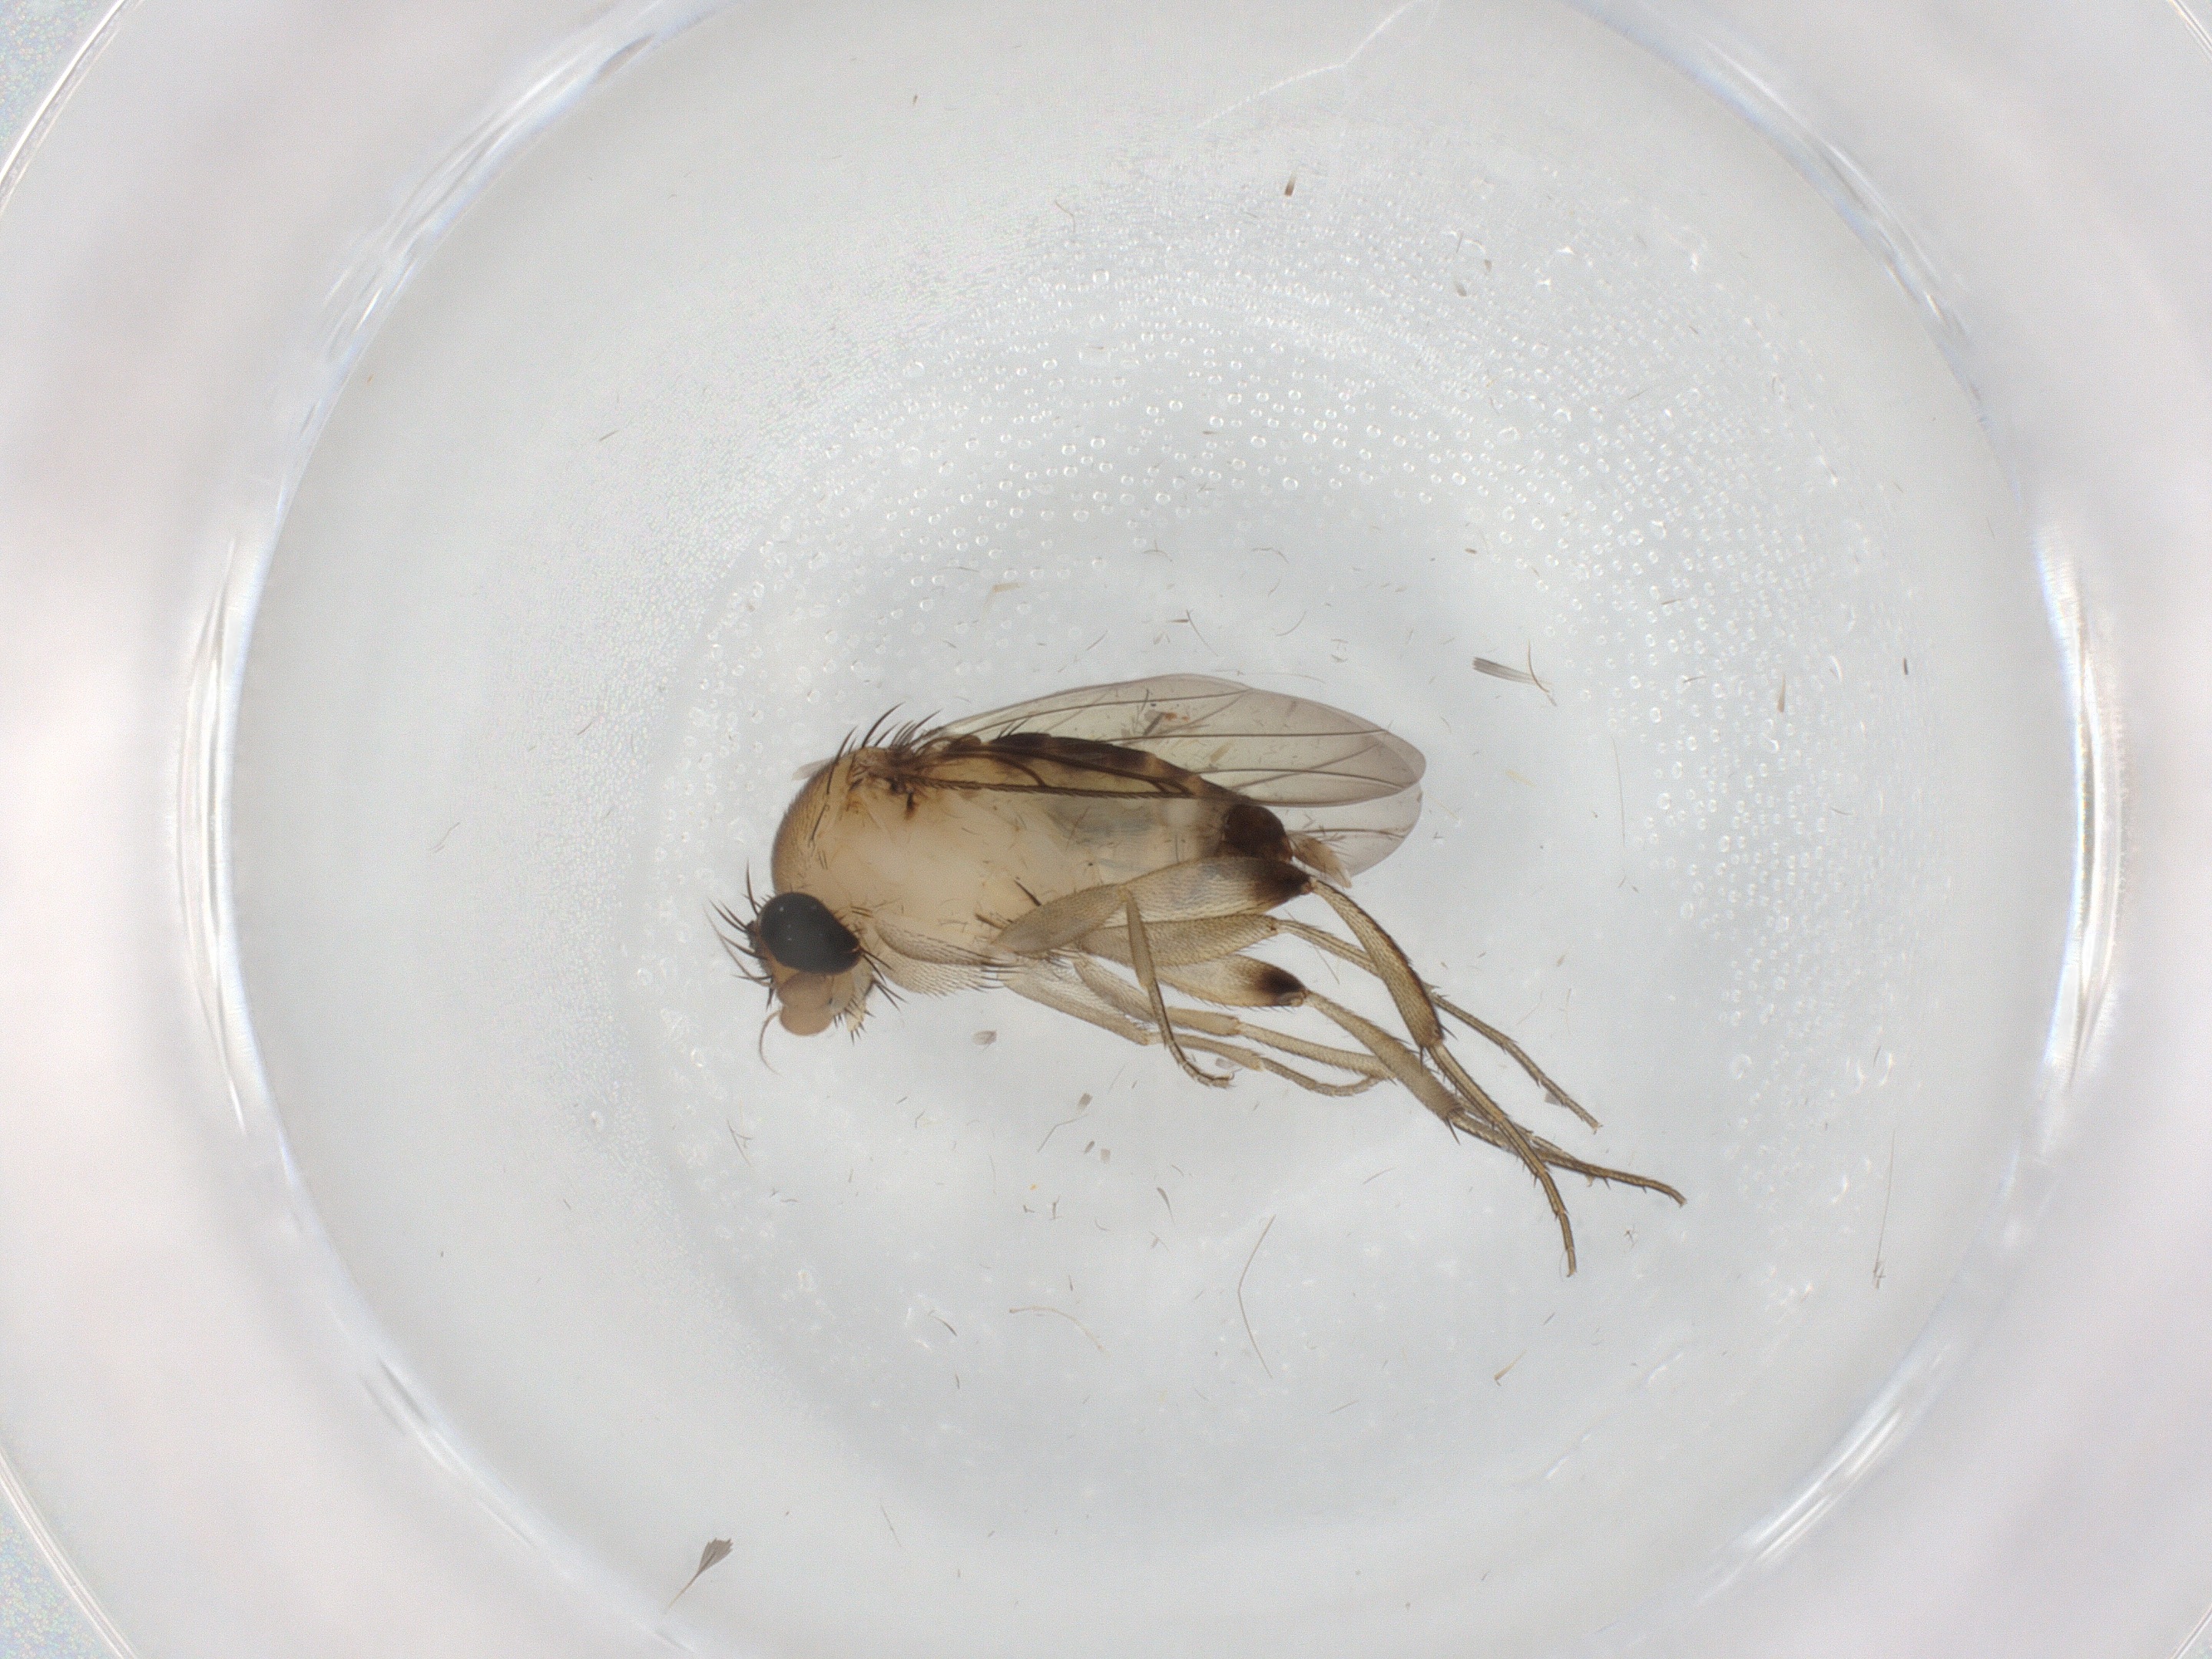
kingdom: Animalia
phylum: Arthropoda
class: Insecta
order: Diptera
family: Phoridae
